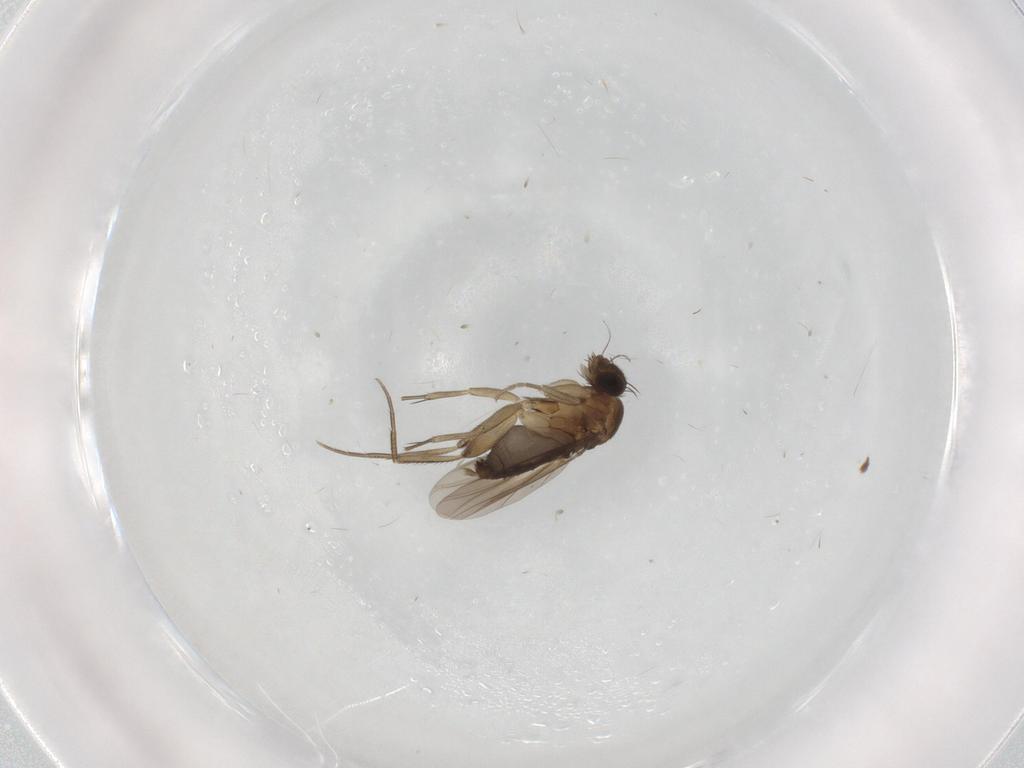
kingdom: Animalia
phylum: Arthropoda
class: Insecta
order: Diptera
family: Phoridae
